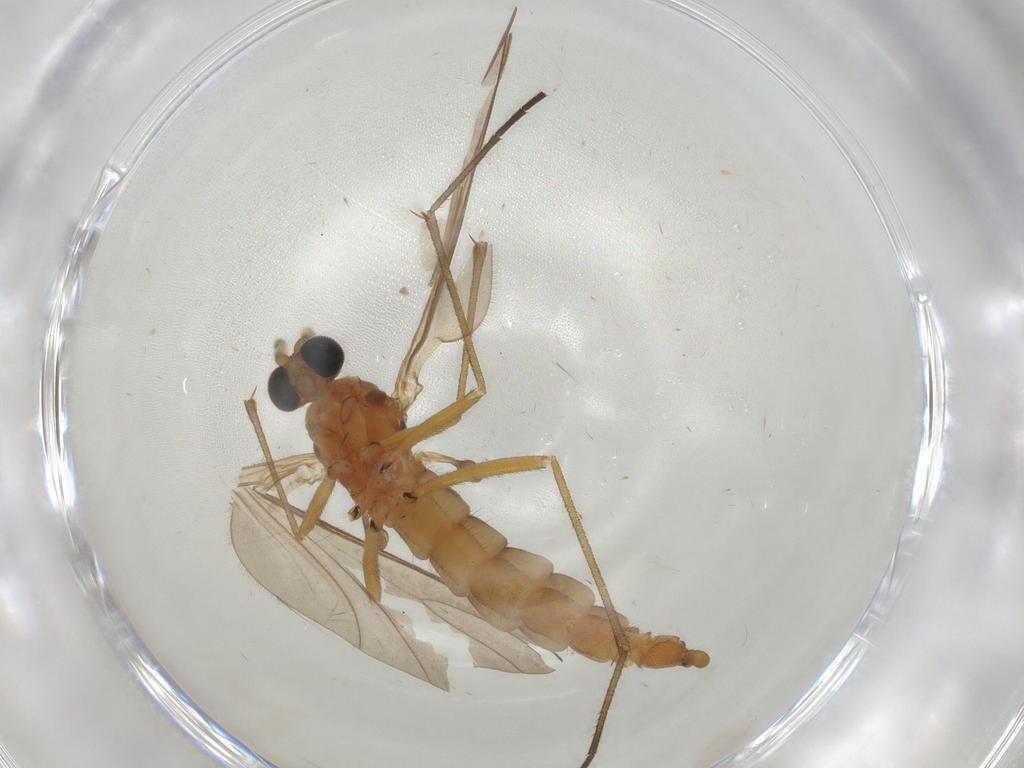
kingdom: Animalia
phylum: Arthropoda
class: Insecta
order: Diptera
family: Sciaridae
